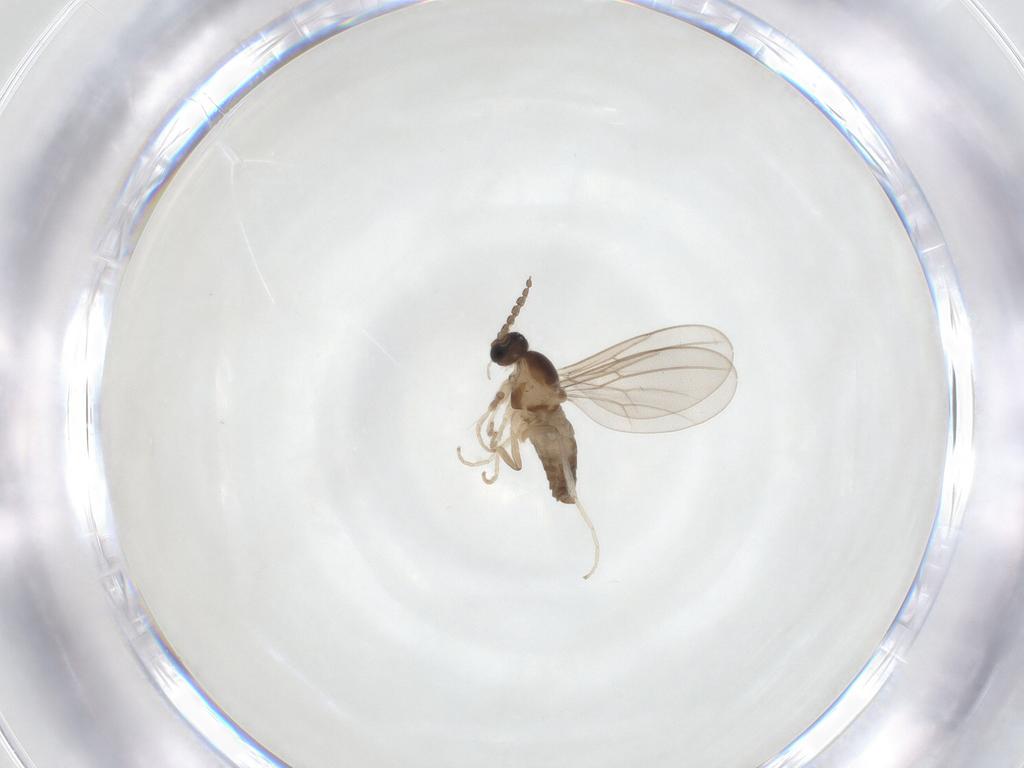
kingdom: Animalia
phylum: Arthropoda
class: Insecta
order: Diptera
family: Cecidomyiidae
